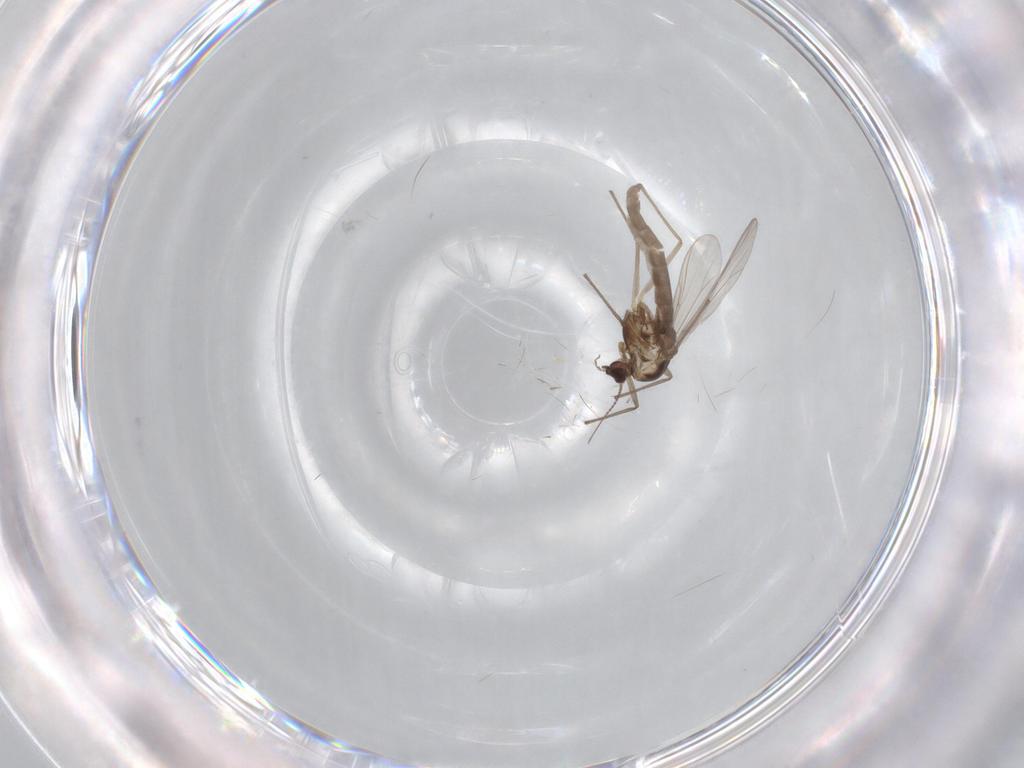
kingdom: Animalia
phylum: Arthropoda
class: Insecta
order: Diptera
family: Chironomidae
